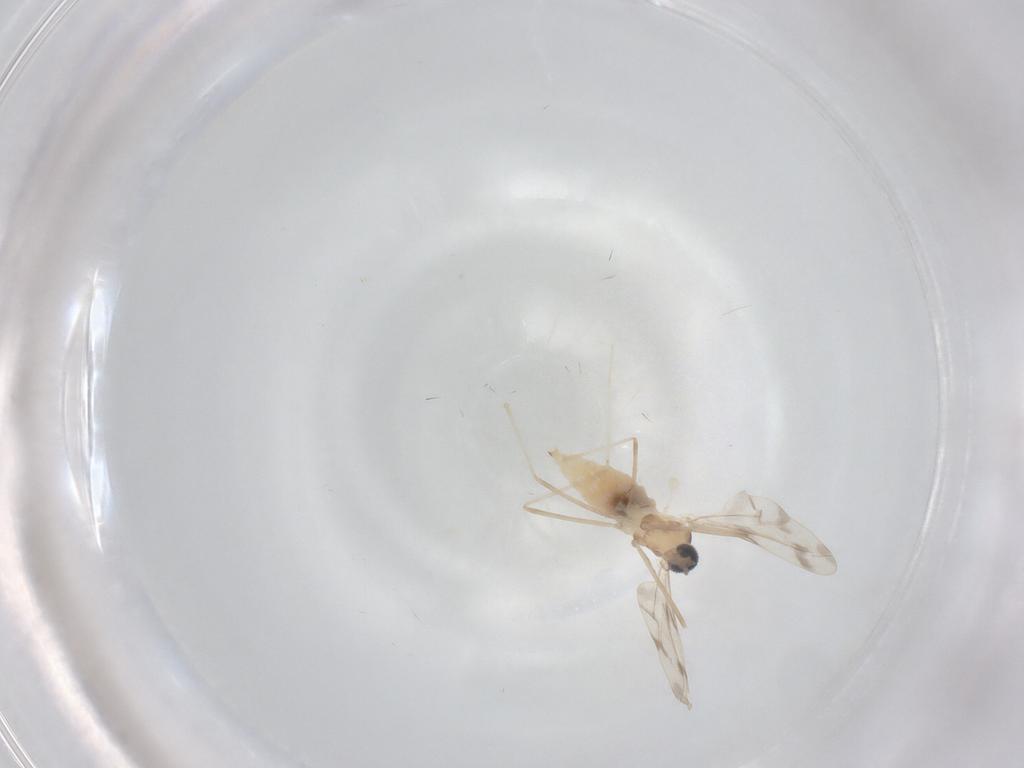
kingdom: Animalia
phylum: Arthropoda
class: Insecta
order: Diptera
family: Cecidomyiidae
